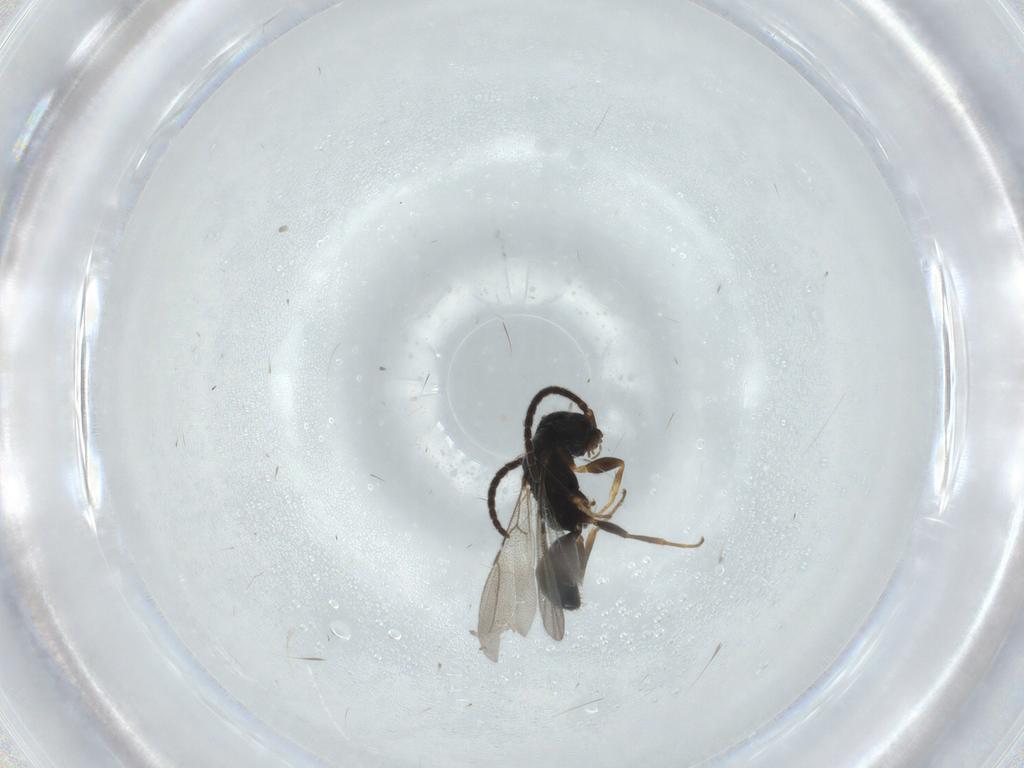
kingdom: Animalia
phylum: Arthropoda
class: Insecta
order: Hymenoptera
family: Bethylidae
